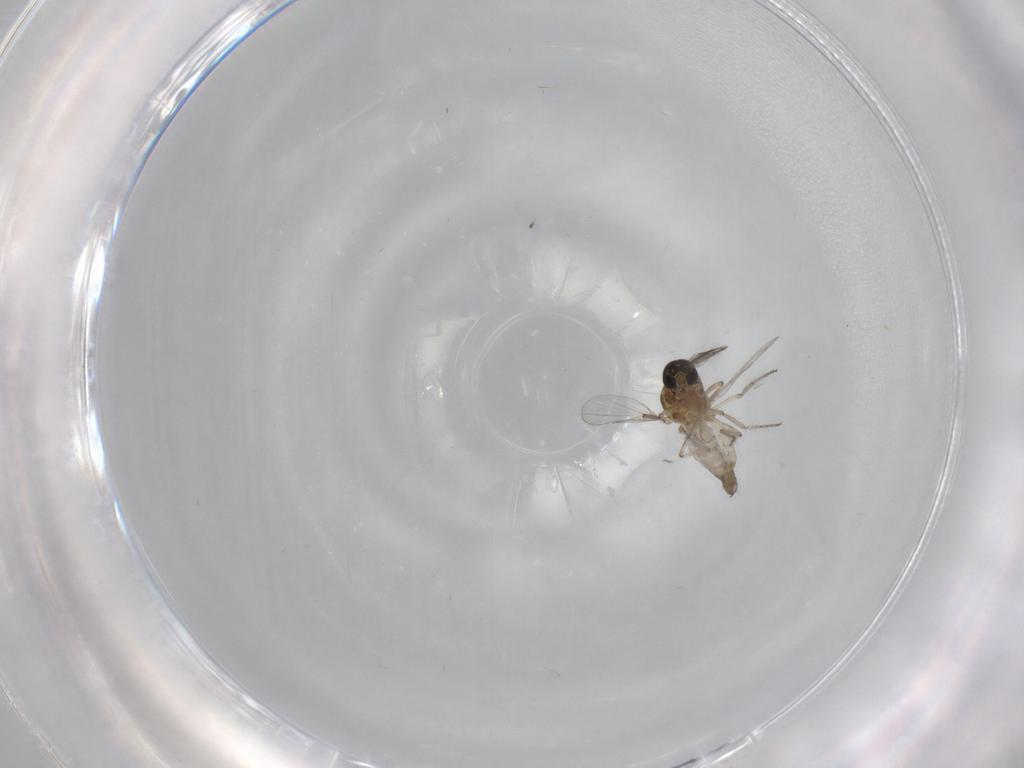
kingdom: Animalia
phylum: Arthropoda
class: Insecta
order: Diptera
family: Ceratopogonidae
